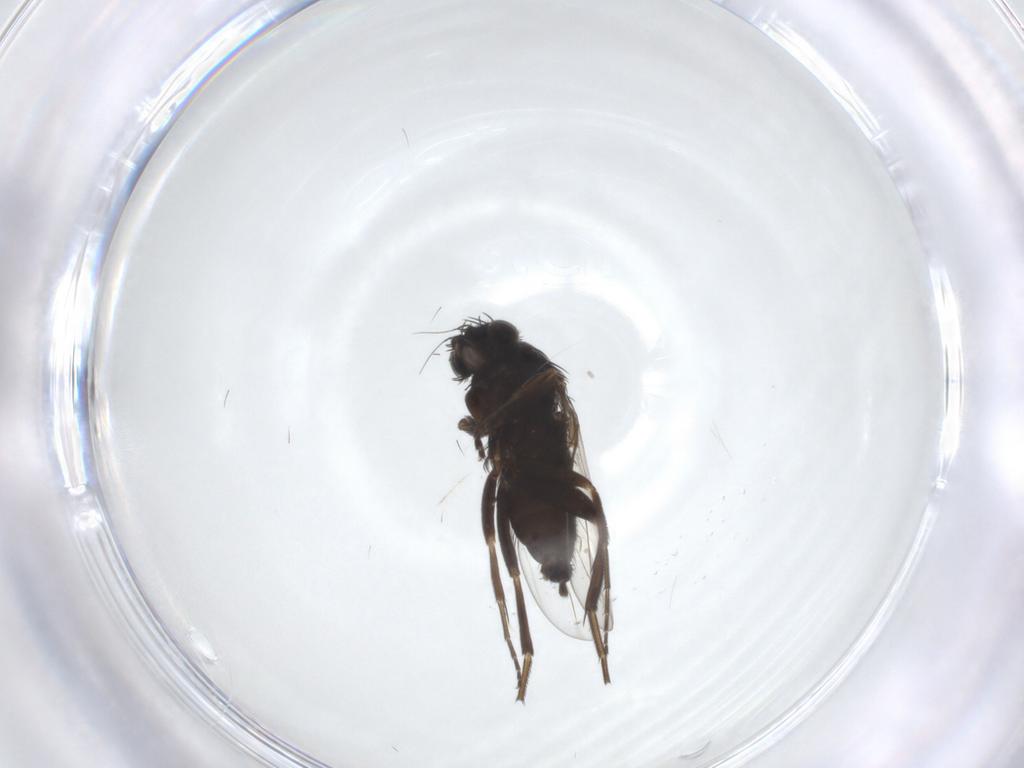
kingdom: Animalia
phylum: Arthropoda
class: Insecta
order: Diptera
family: Phoridae
